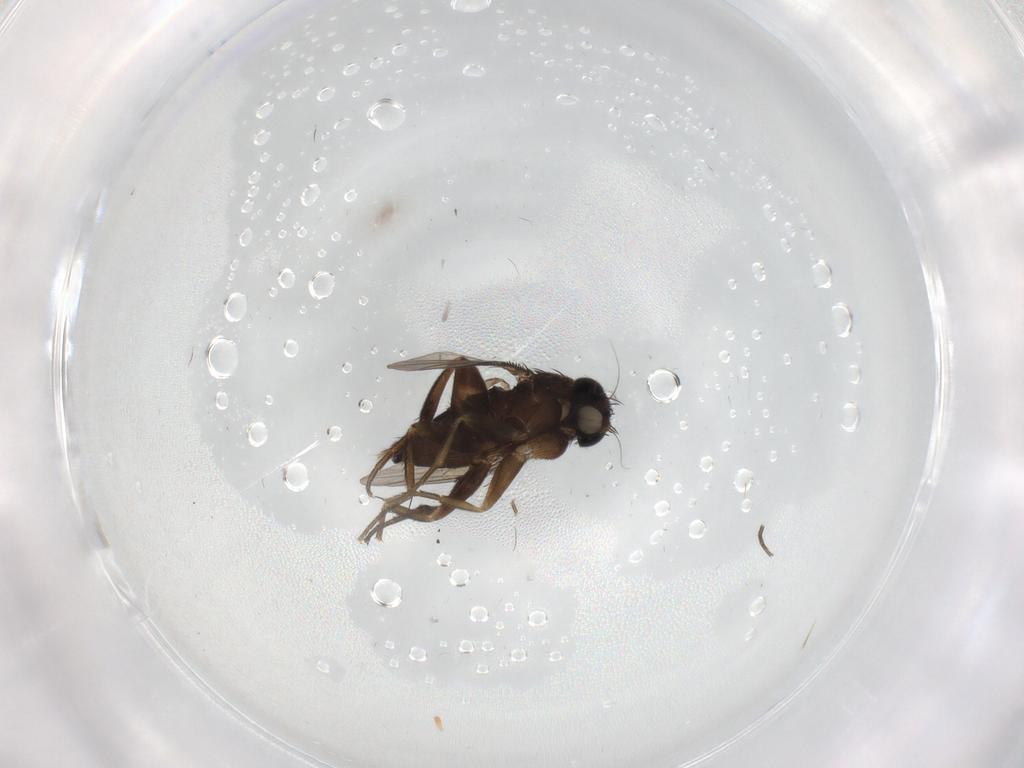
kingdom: Animalia
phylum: Arthropoda
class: Insecta
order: Diptera
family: Phoridae
